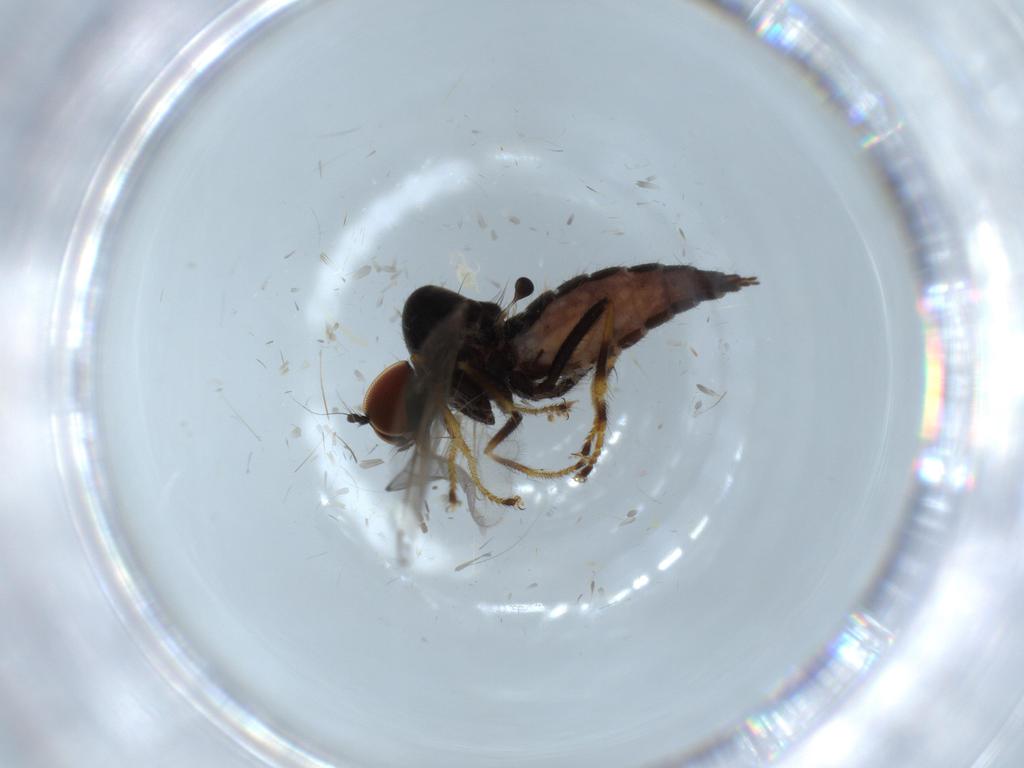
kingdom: Animalia
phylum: Arthropoda
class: Insecta
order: Diptera
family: Hybotidae
